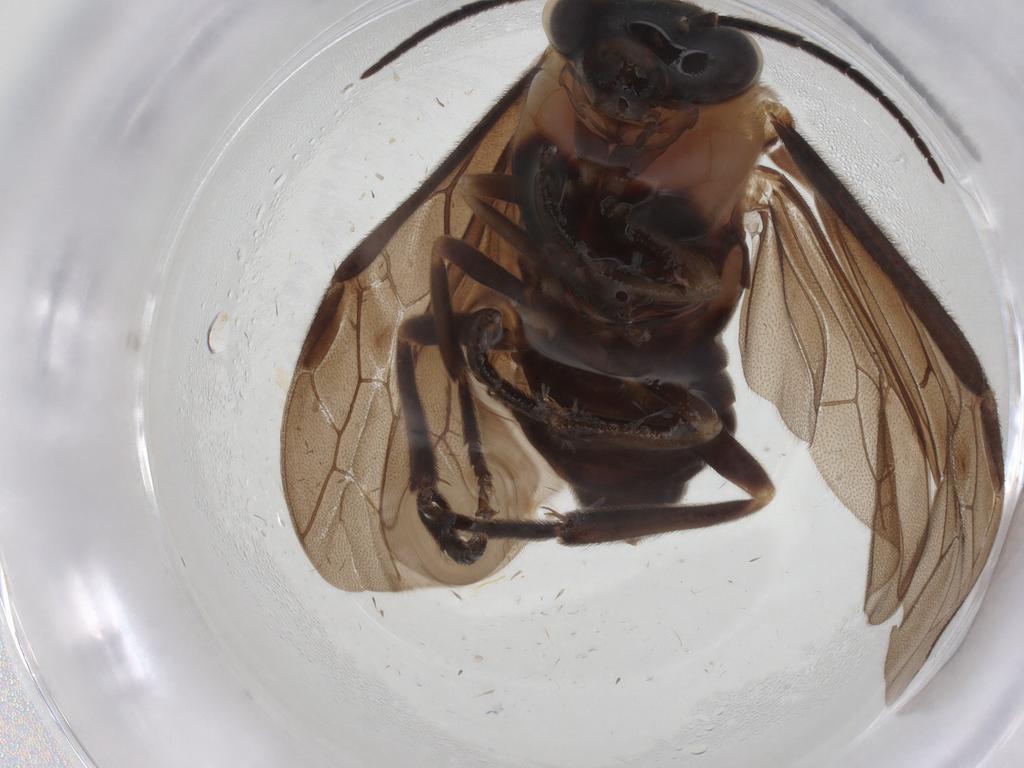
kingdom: Animalia
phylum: Arthropoda
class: Insecta
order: Hymenoptera
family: Tenthredinidae
